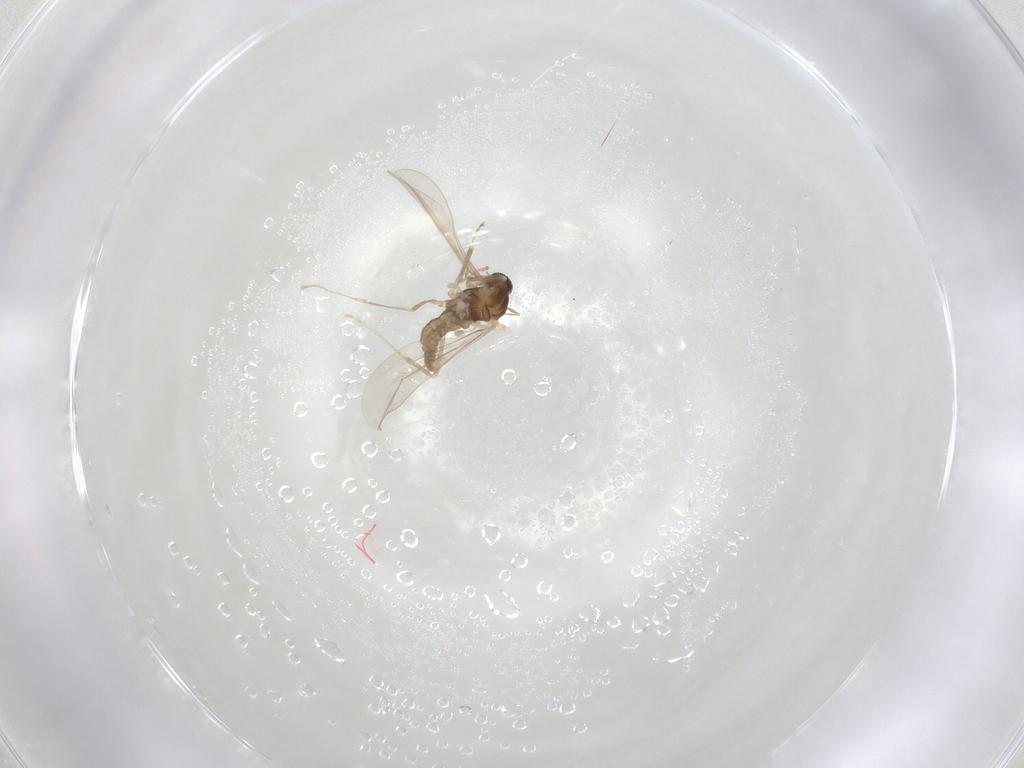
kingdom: Animalia
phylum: Arthropoda
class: Insecta
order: Diptera
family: Cecidomyiidae
